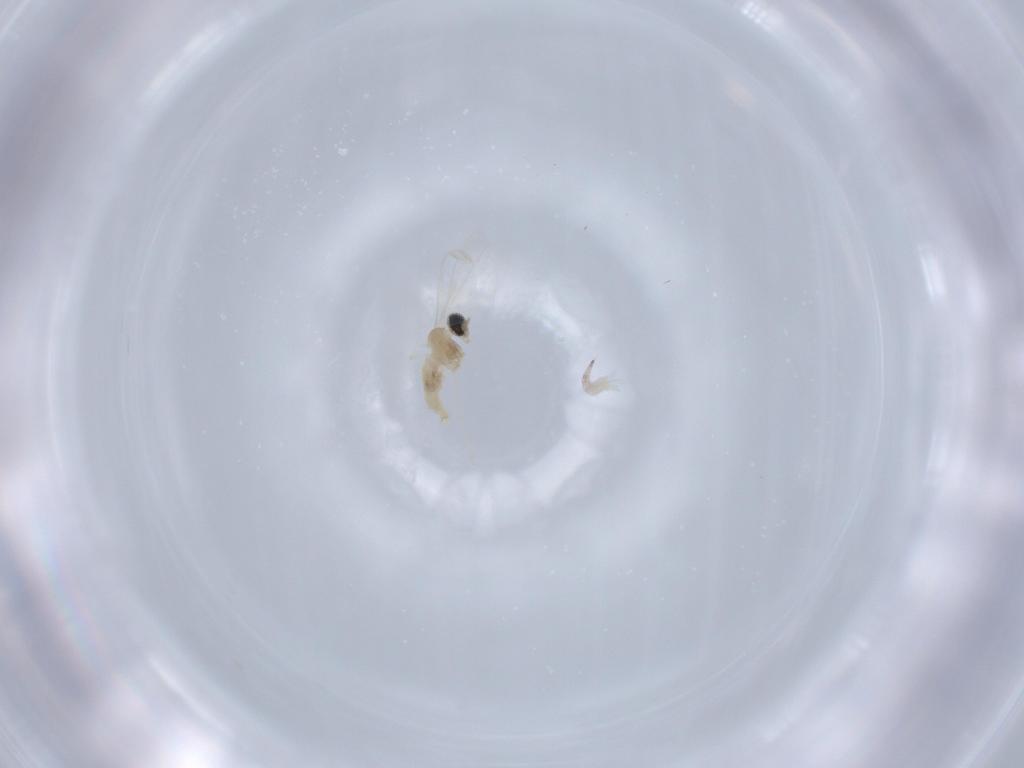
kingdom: Animalia
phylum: Arthropoda
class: Insecta
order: Diptera
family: Cecidomyiidae
